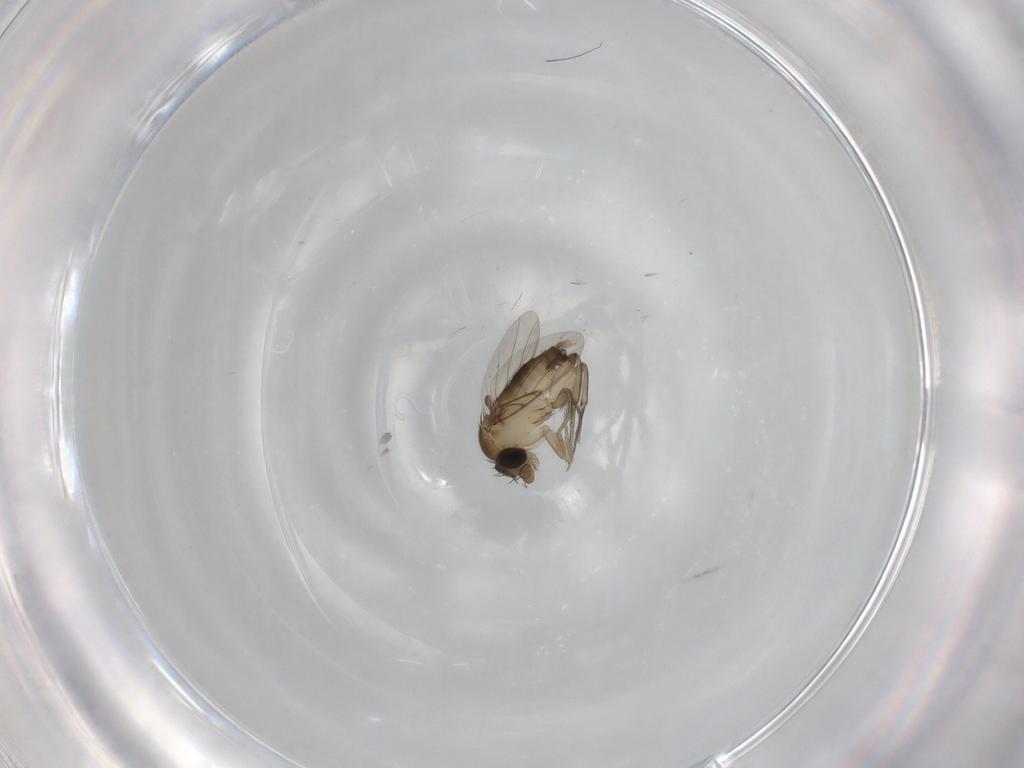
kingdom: Animalia
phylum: Arthropoda
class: Insecta
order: Diptera
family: Phoridae
